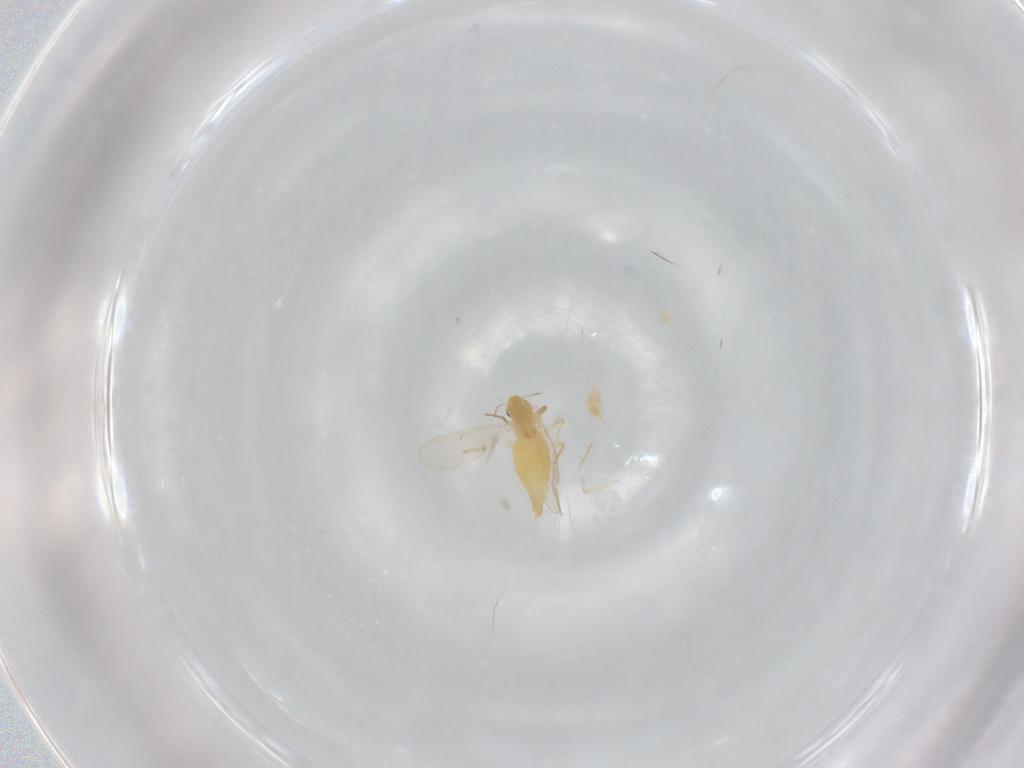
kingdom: Animalia
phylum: Arthropoda
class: Insecta
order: Diptera
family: Chironomidae
